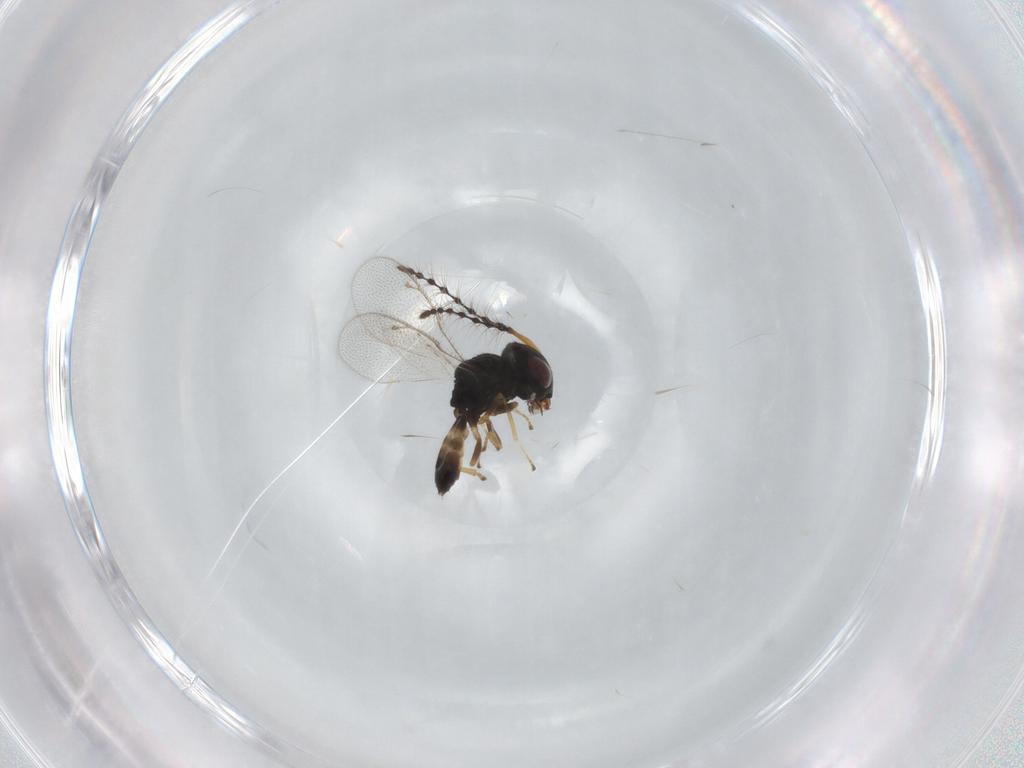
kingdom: Animalia
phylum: Arthropoda
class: Insecta
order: Hymenoptera
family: Pteromalidae
